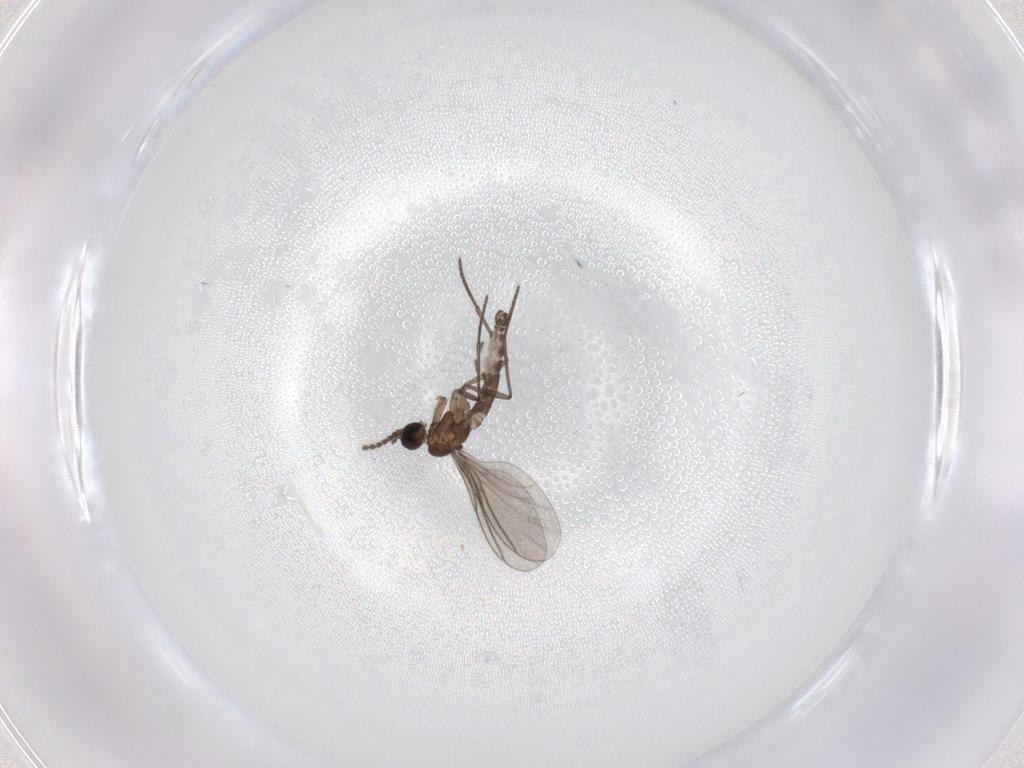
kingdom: Animalia
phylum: Arthropoda
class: Insecta
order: Diptera
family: Sciaridae
